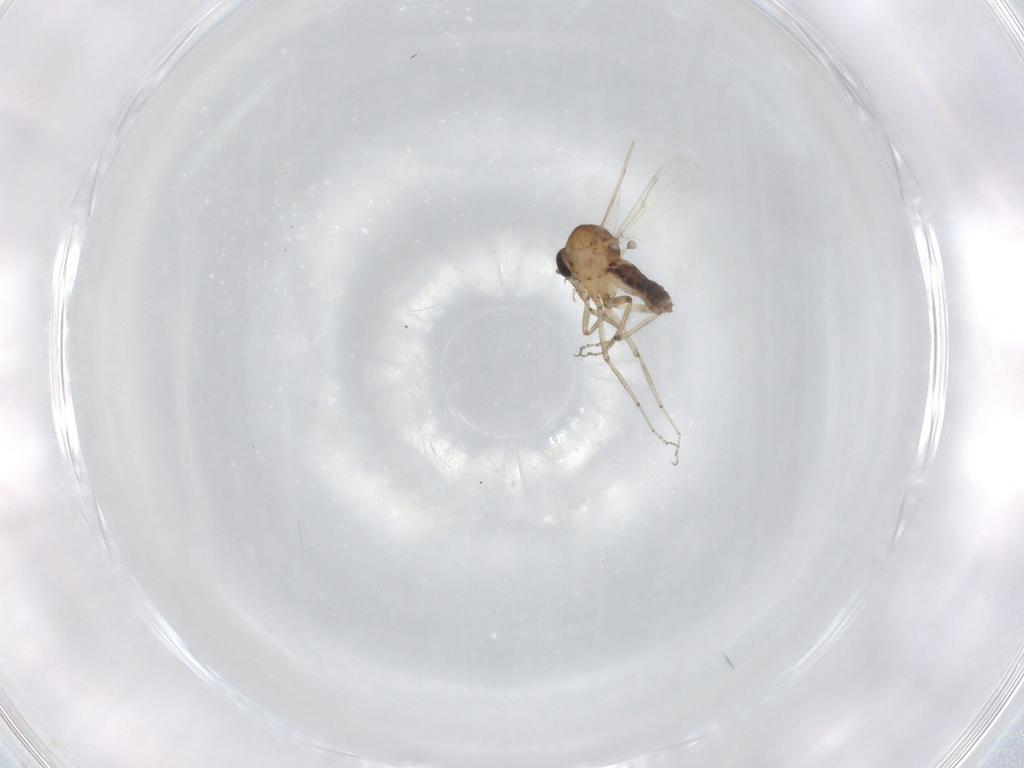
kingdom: Animalia
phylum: Arthropoda
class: Insecta
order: Diptera
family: Ceratopogonidae
